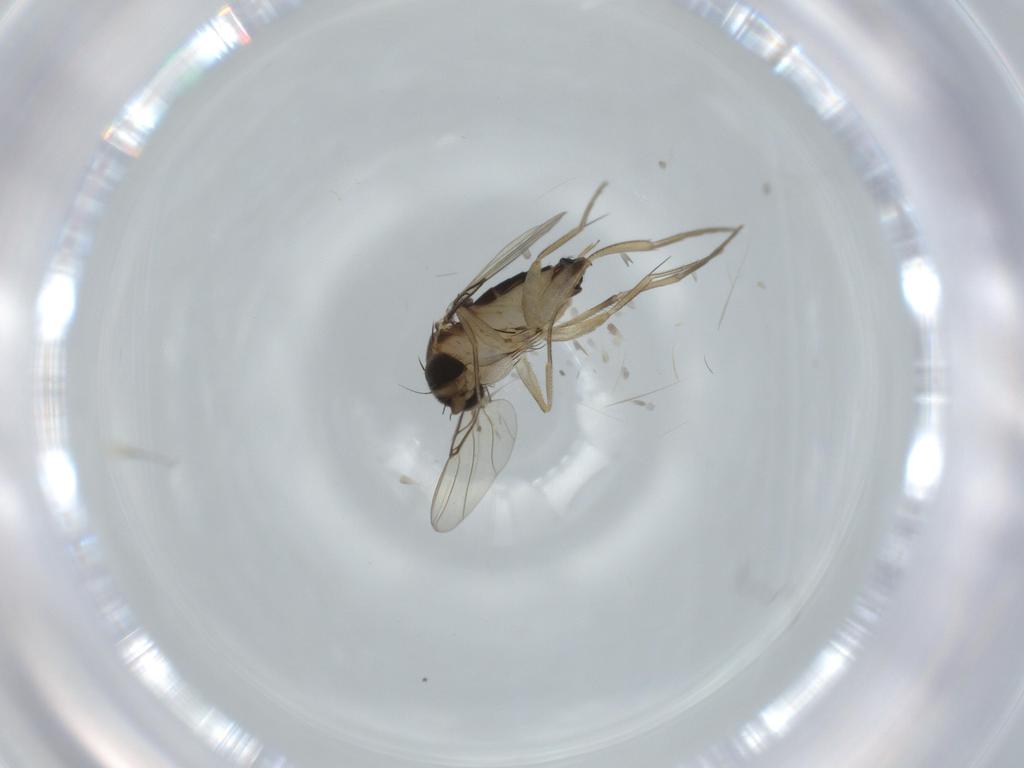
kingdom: Animalia
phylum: Arthropoda
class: Insecta
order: Diptera
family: Phoridae
